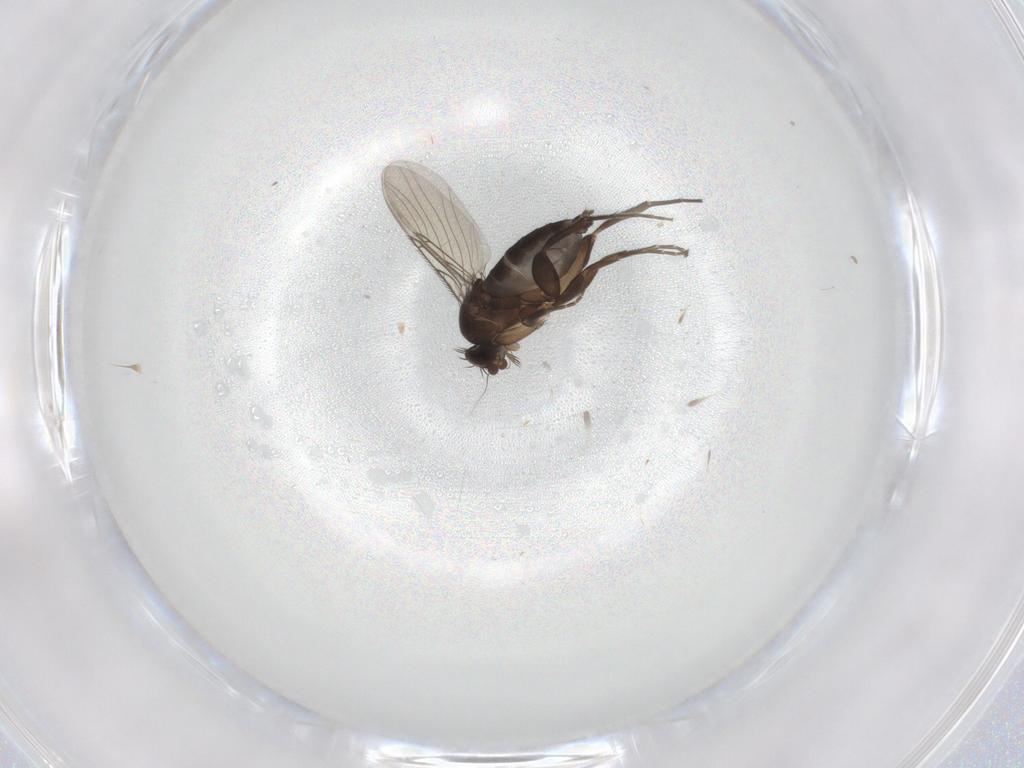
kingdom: Animalia
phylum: Arthropoda
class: Insecta
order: Diptera
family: Phoridae
